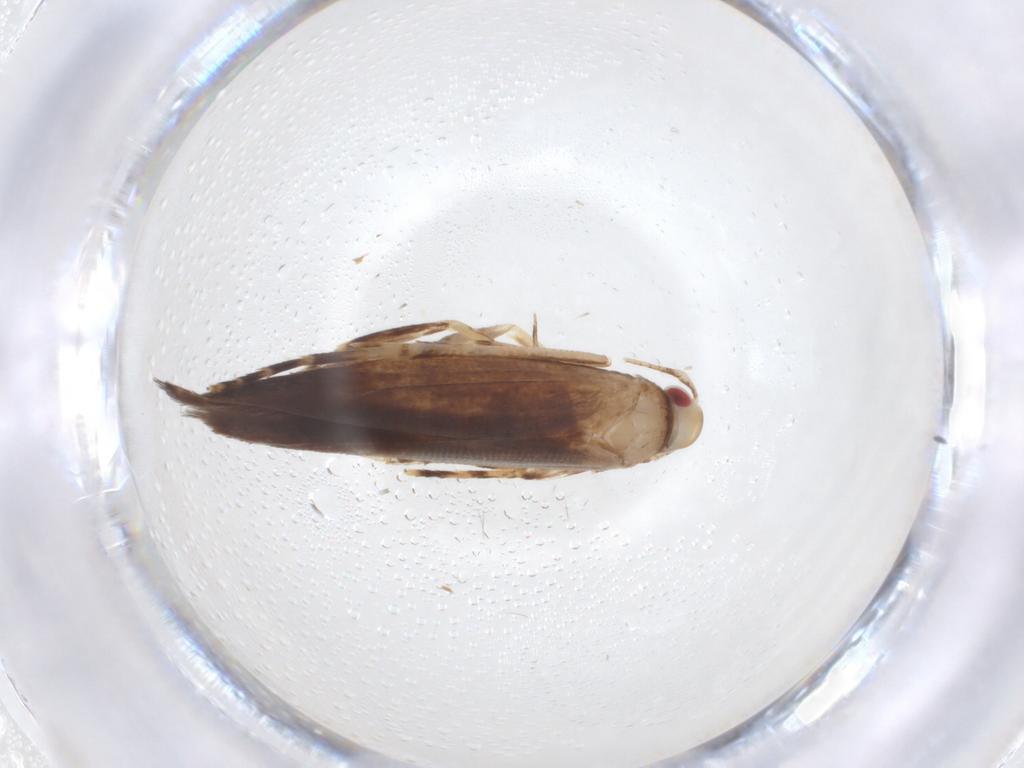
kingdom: Animalia
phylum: Arthropoda
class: Insecta
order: Lepidoptera
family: Cosmopterigidae
